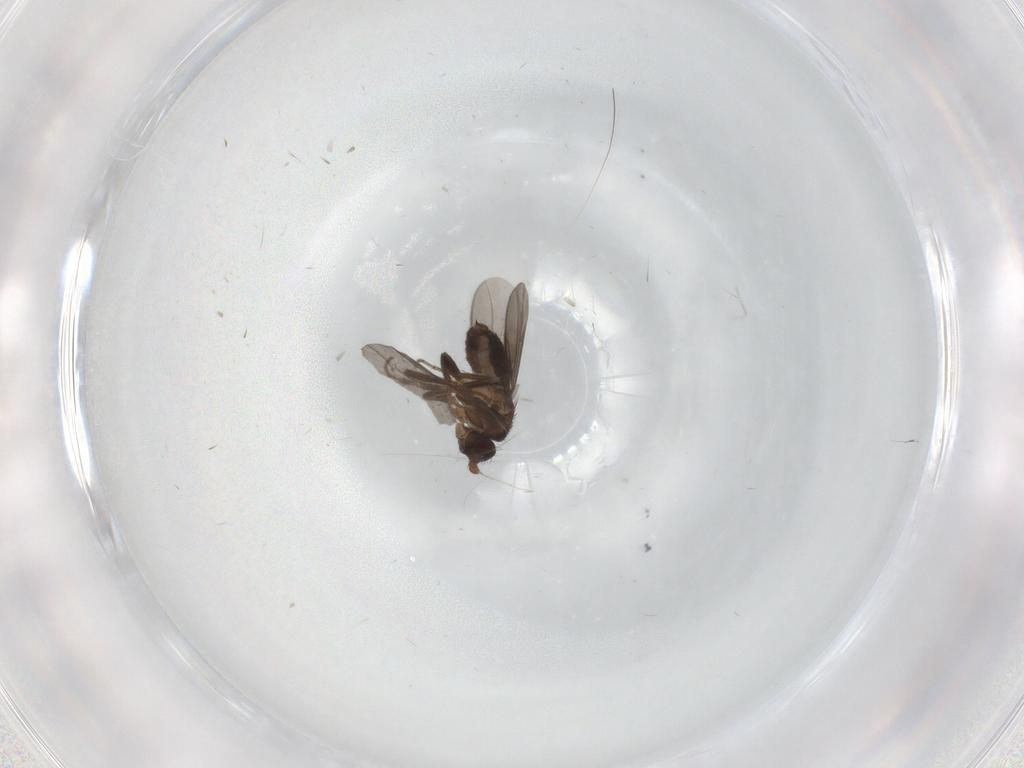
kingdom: Animalia
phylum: Arthropoda
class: Insecta
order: Diptera
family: Sphaeroceridae
